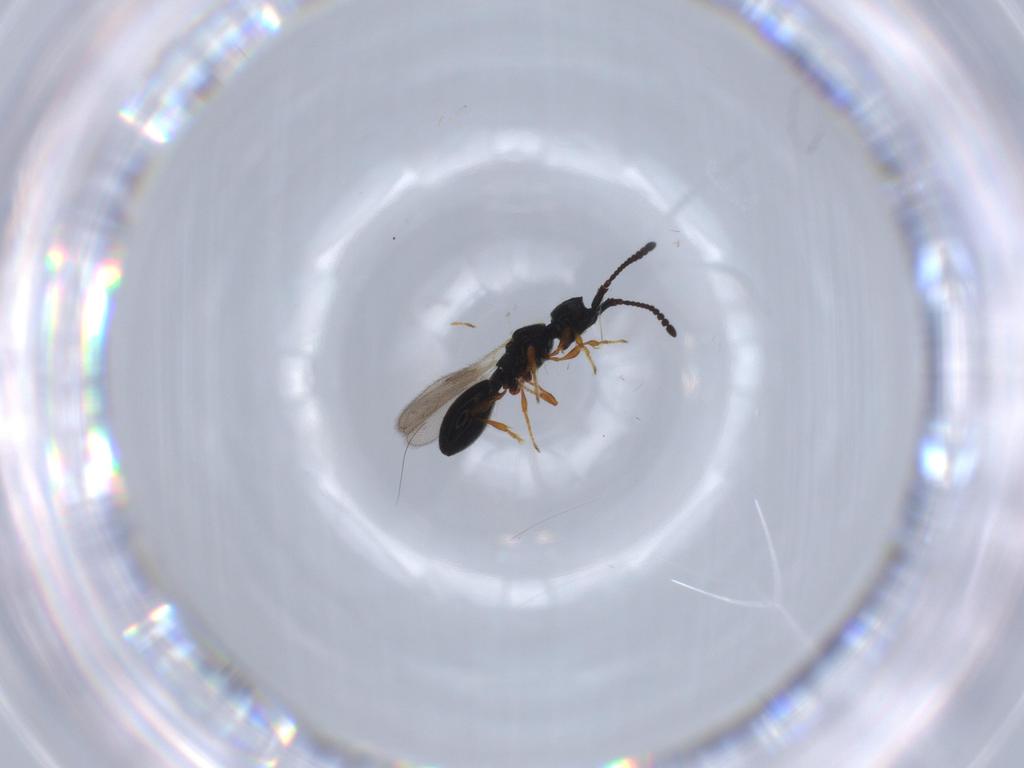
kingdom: Animalia
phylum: Arthropoda
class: Insecta
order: Hymenoptera
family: Diapriidae
